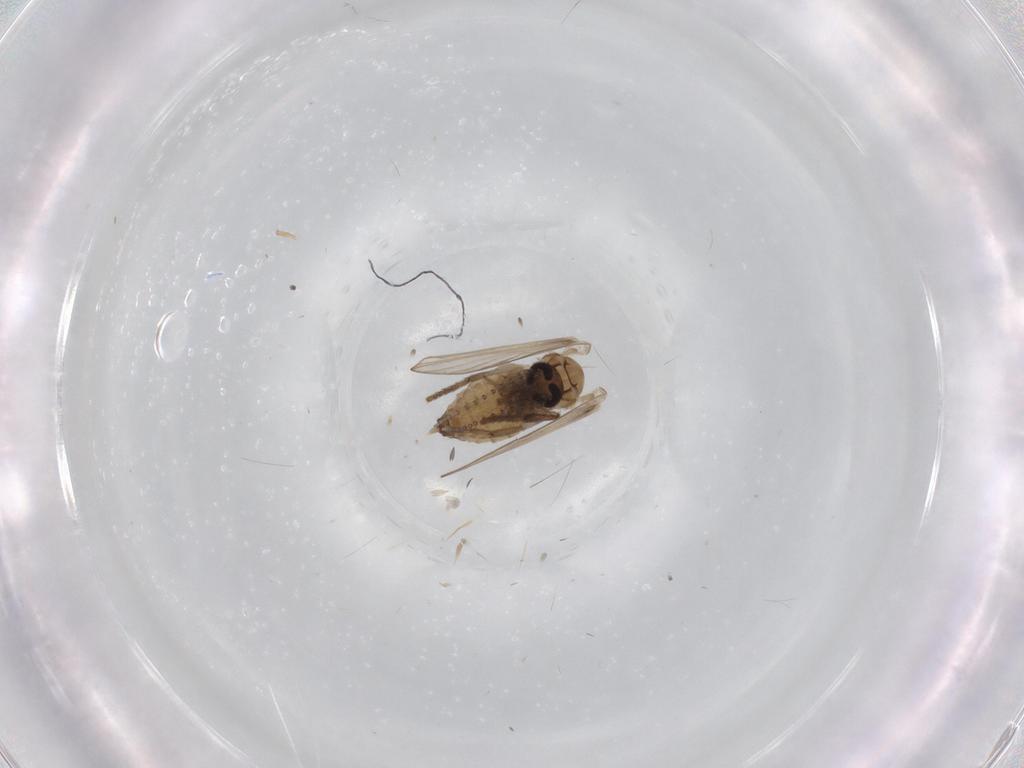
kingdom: Animalia
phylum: Arthropoda
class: Insecta
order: Diptera
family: Psychodidae
